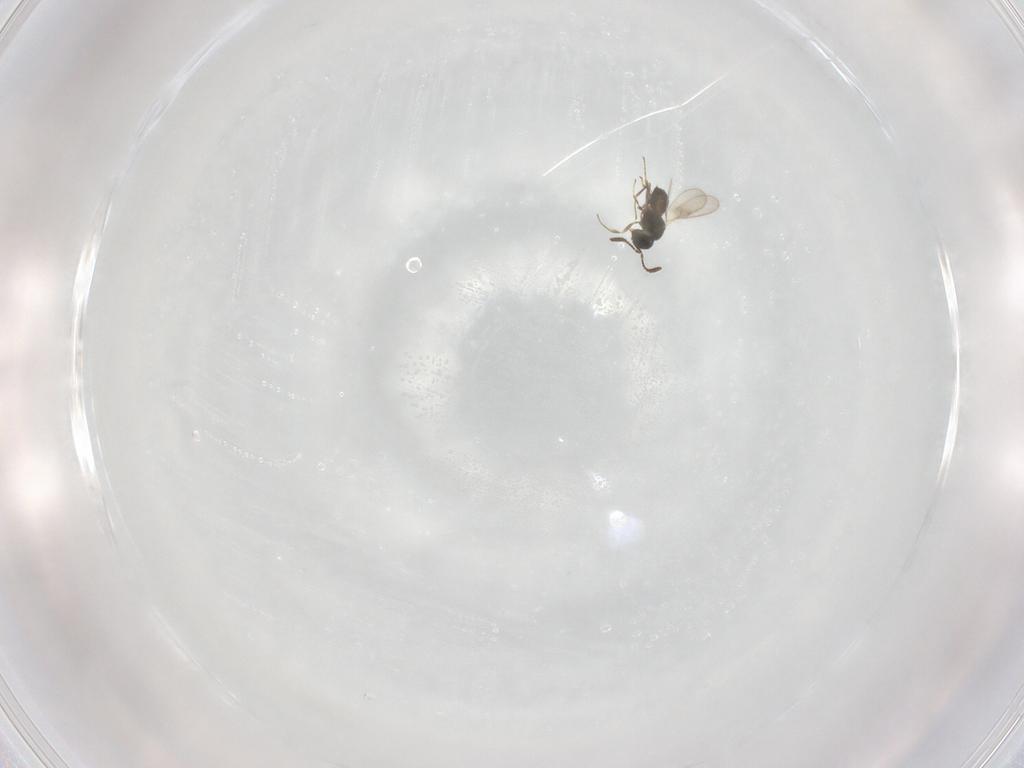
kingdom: Animalia
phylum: Arthropoda
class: Insecta
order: Hymenoptera
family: Scelionidae
